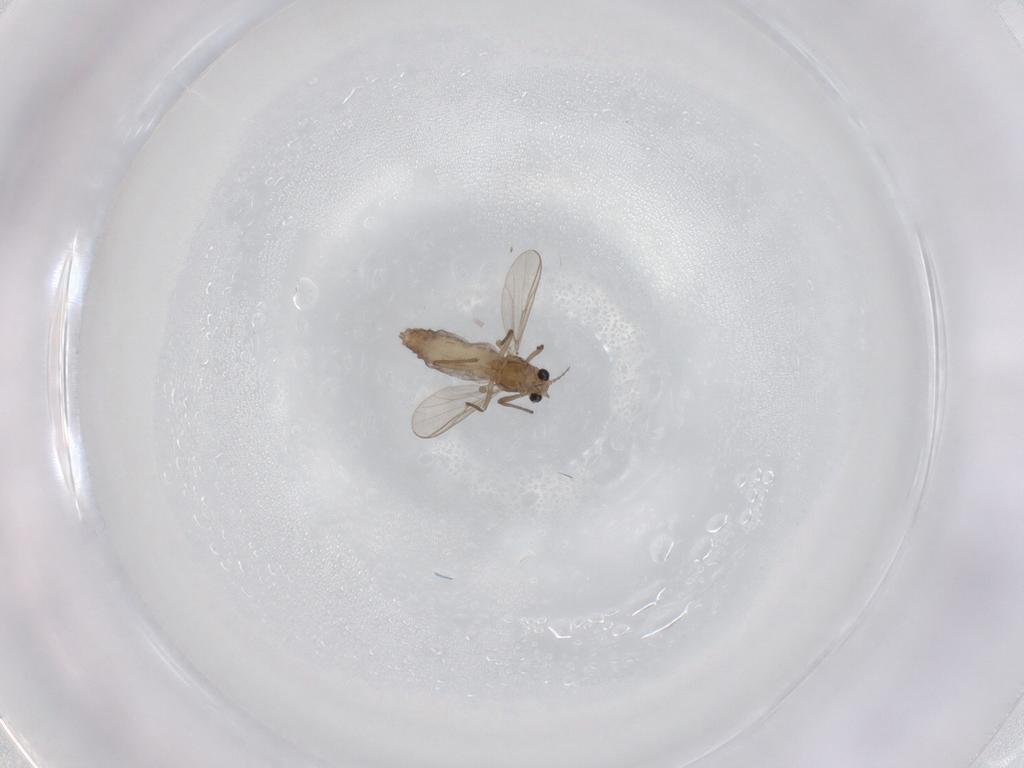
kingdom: Animalia
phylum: Arthropoda
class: Insecta
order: Diptera
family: Chironomidae
